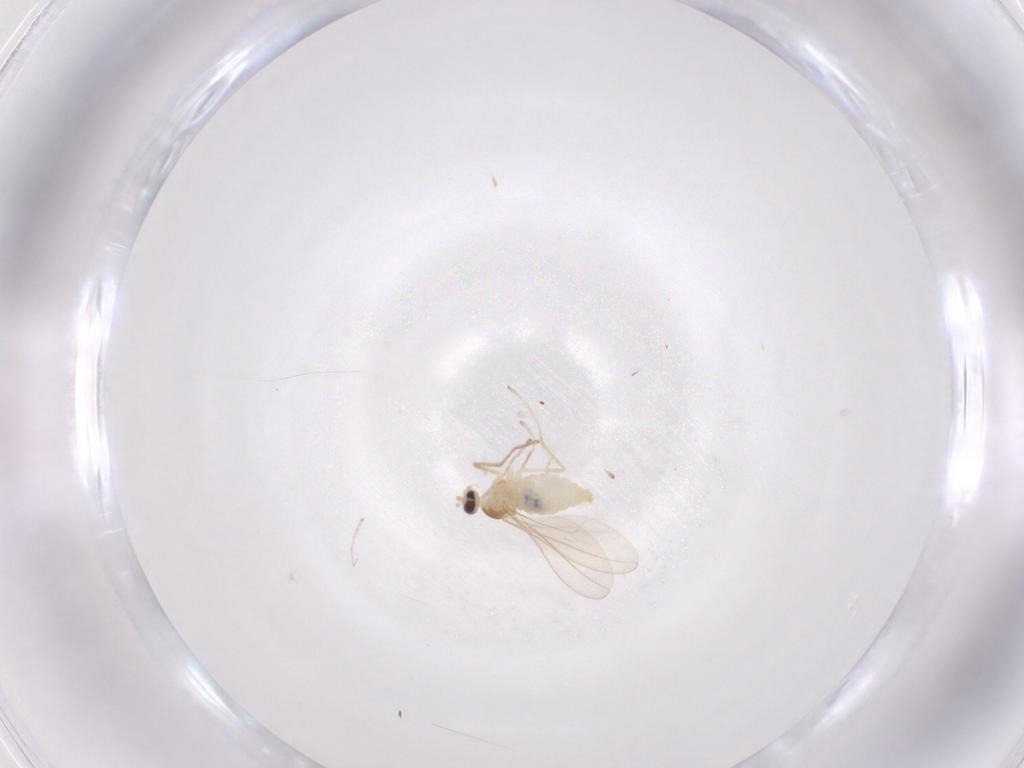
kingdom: Animalia
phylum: Arthropoda
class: Insecta
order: Diptera
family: Cecidomyiidae
